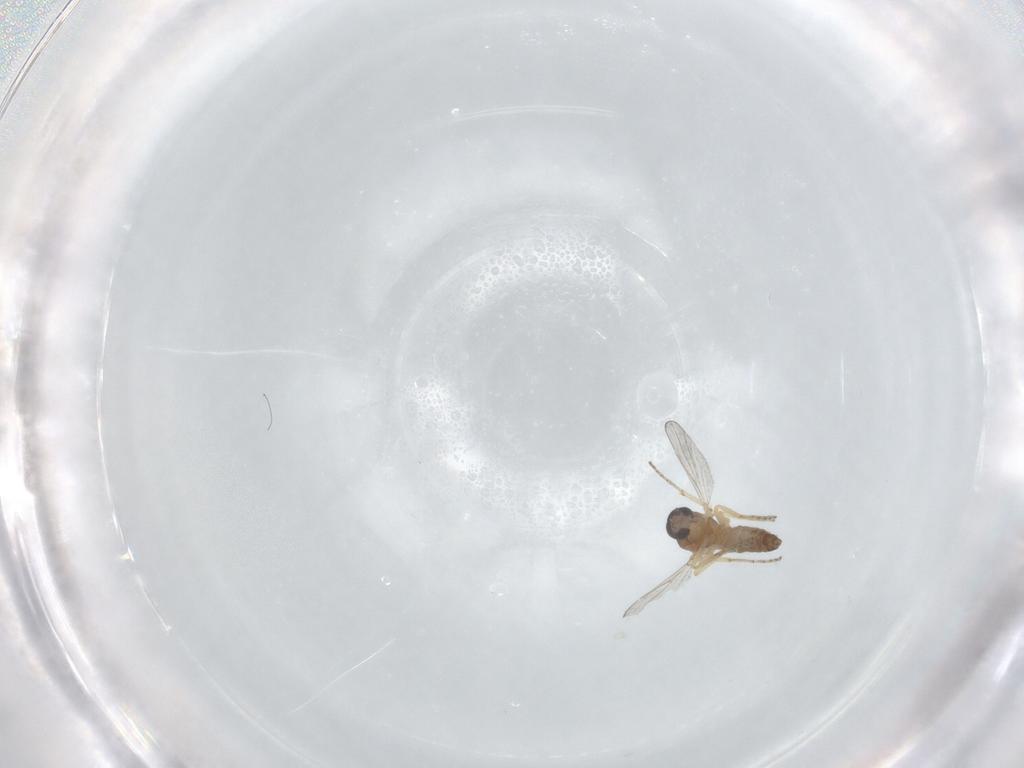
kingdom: Animalia
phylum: Arthropoda
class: Insecta
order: Diptera
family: Ceratopogonidae
